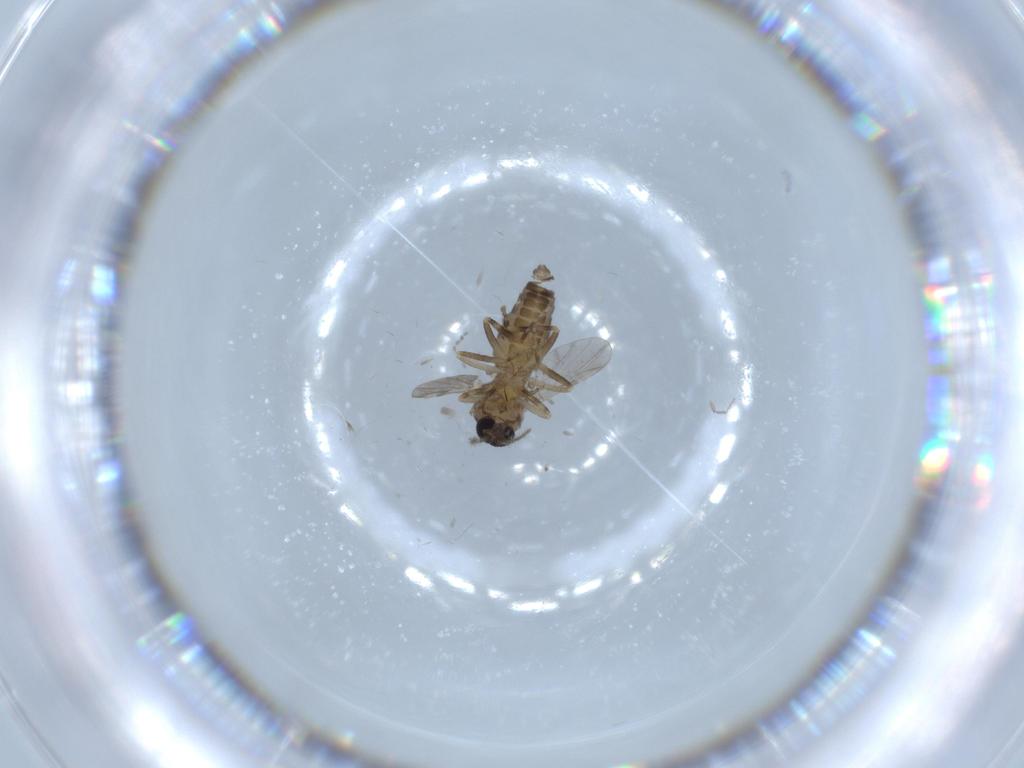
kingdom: Animalia
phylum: Arthropoda
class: Insecta
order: Diptera
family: Ceratopogonidae
